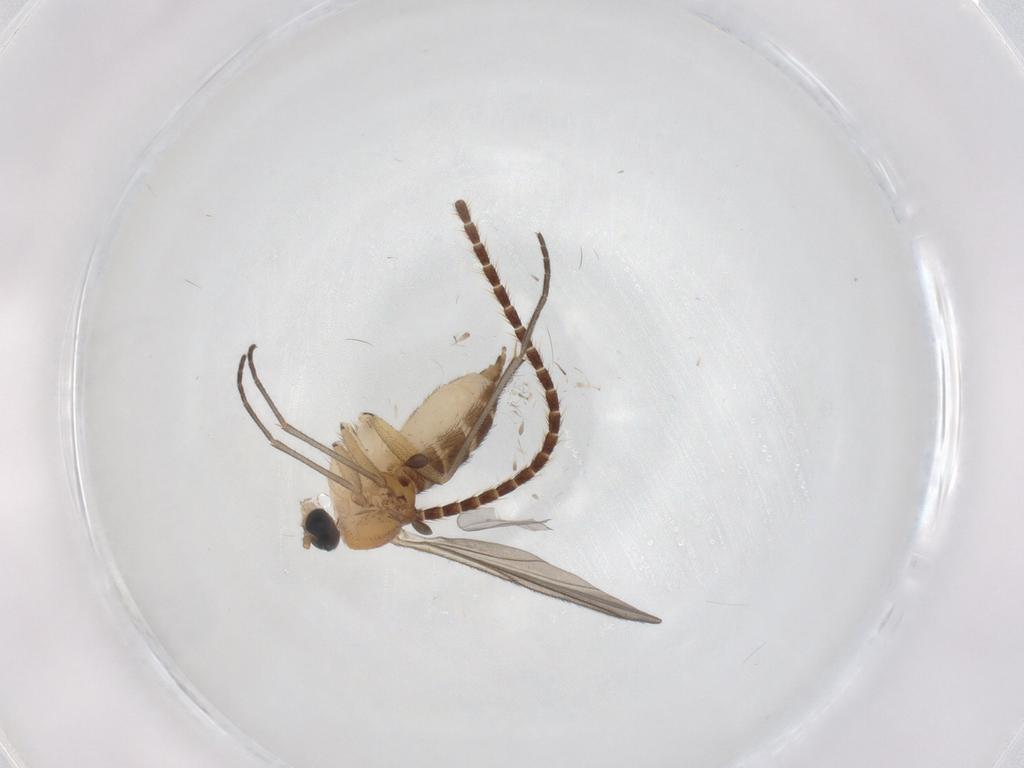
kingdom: Animalia
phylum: Arthropoda
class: Insecta
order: Diptera
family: Sciaridae
